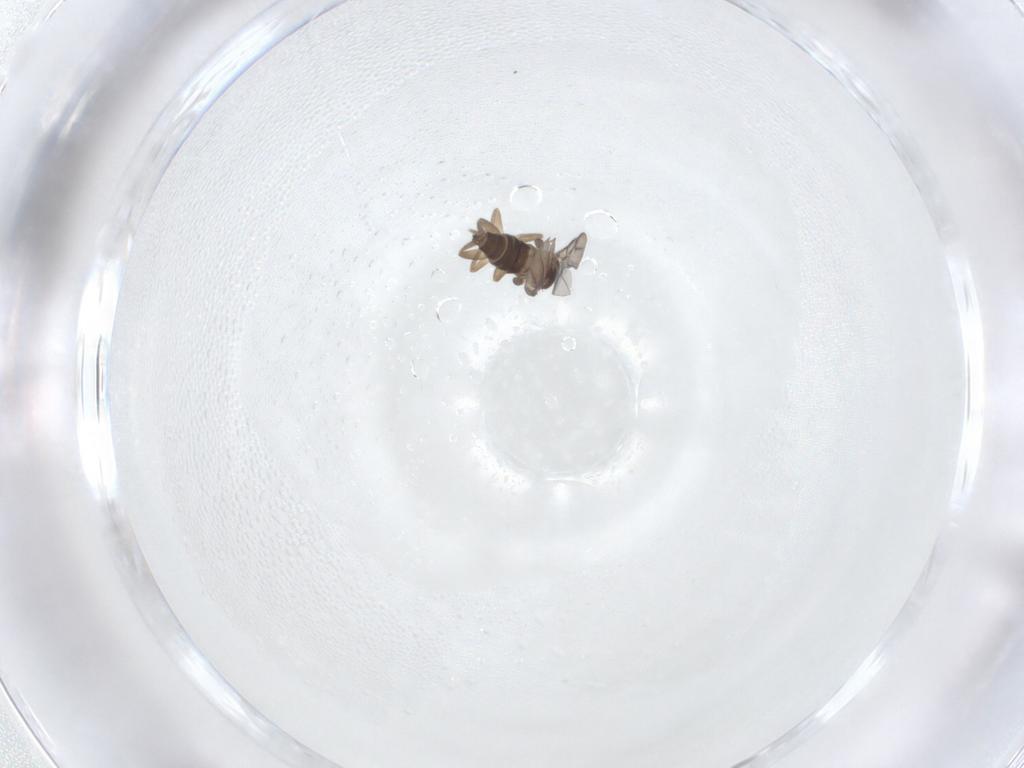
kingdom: Animalia
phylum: Arthropoda
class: Insecta
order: Diptera
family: Phoridae
